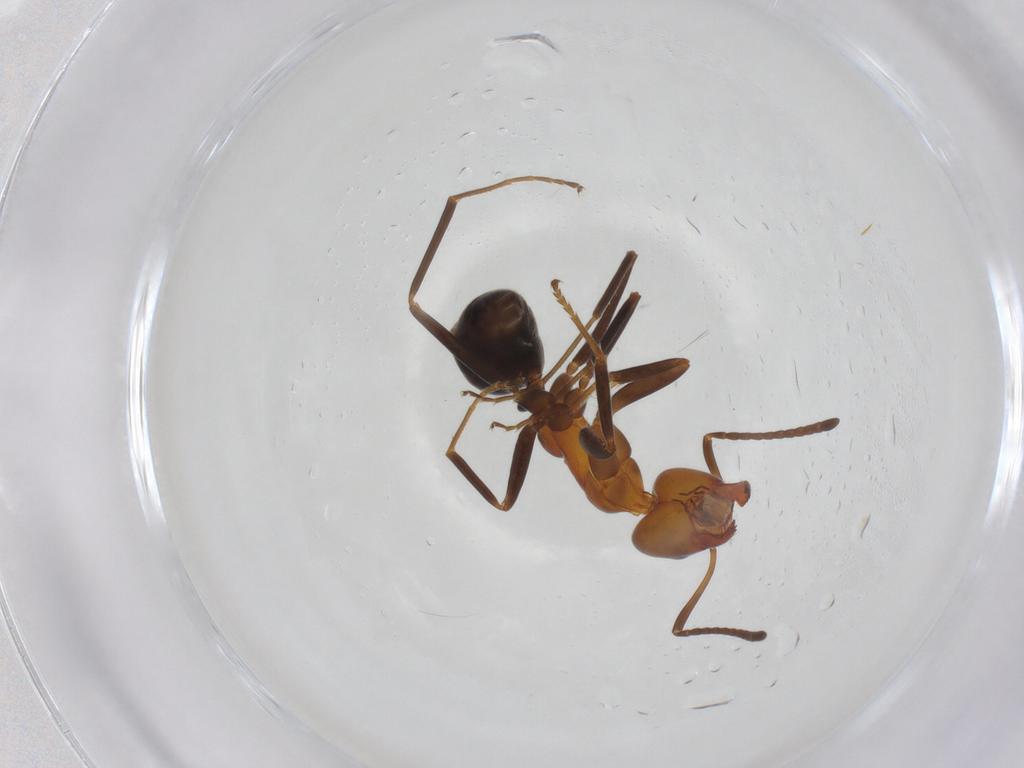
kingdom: Animalia
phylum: Arthropoda
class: Insecta
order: Hymenoptera
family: Formicidae
